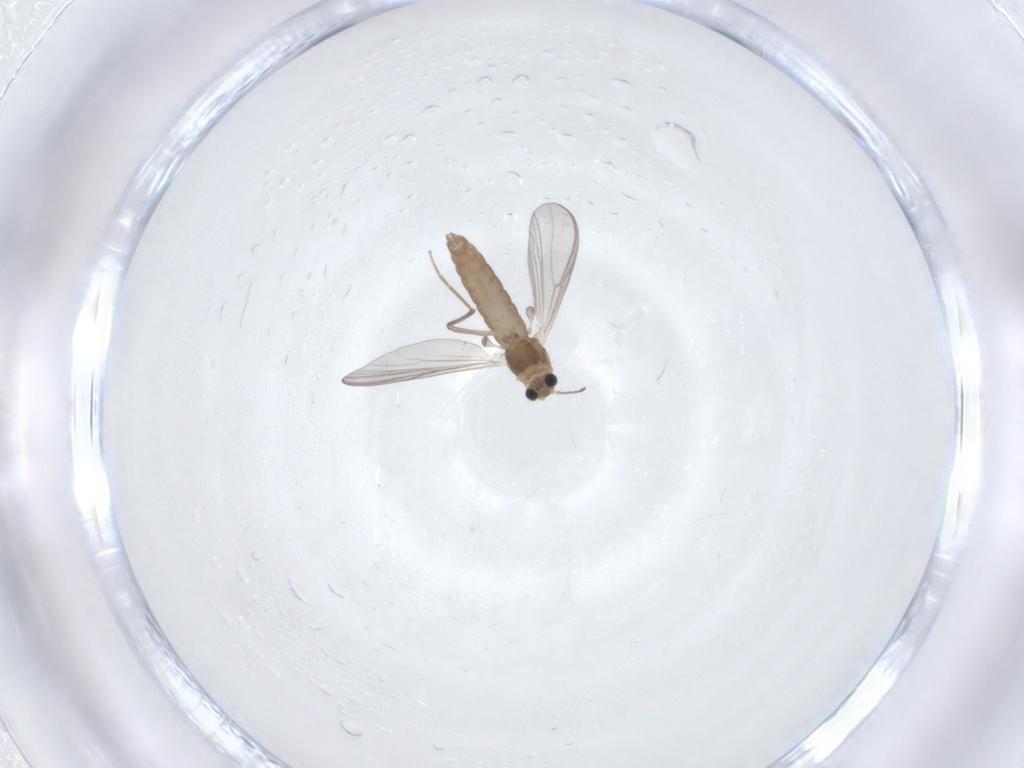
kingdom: Animalia
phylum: Arthropoda
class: Insecta
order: Diptera
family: Chironomidae
